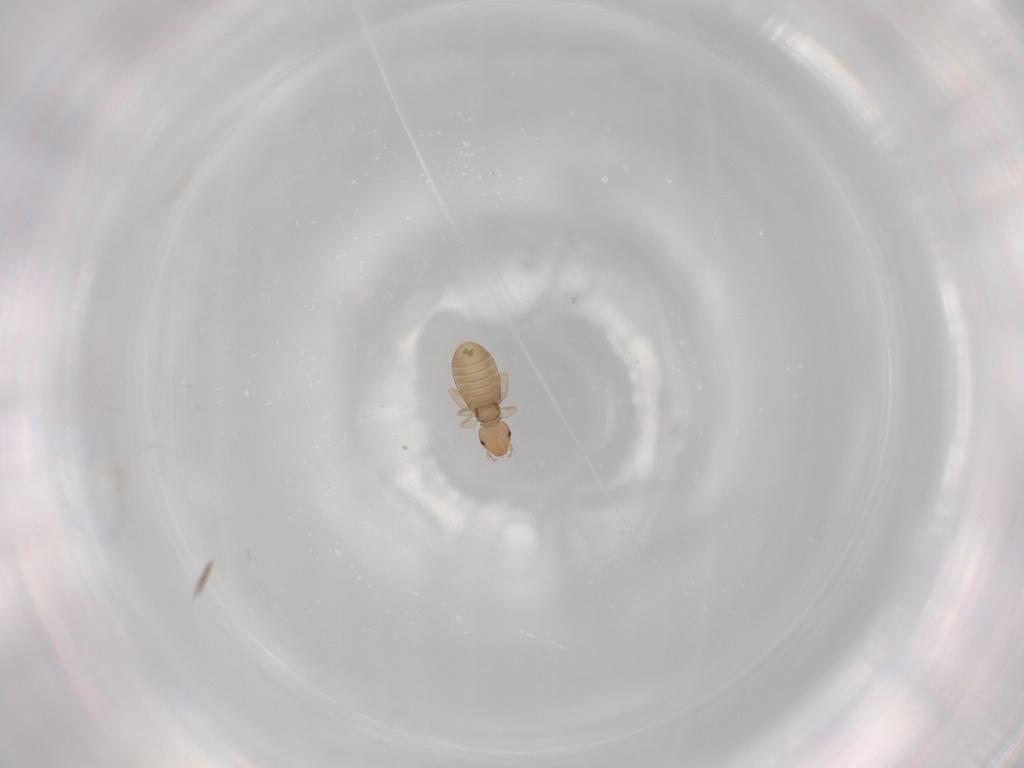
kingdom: Animalia
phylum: Arthropoda
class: Insecta
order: Psocodea
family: Liposcelididae
